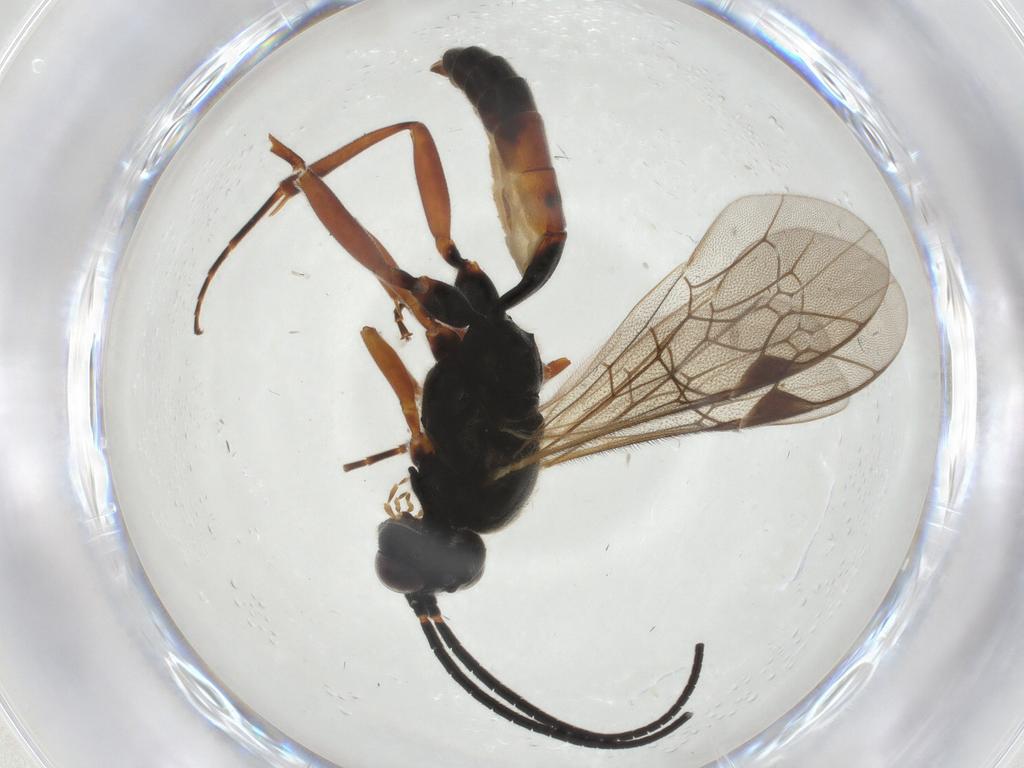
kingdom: Animalia
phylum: Arthropoda
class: Insecta
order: Hymenoptera
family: Ichneumonidae
